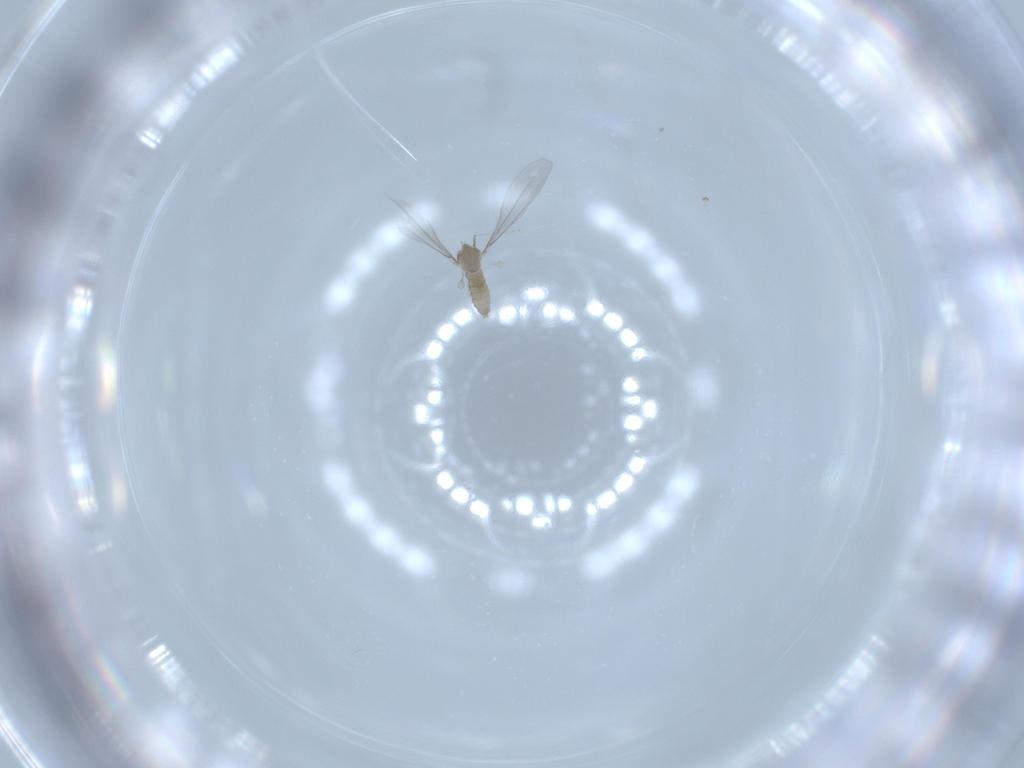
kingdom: Animalia
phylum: Arthropoda
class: Insecta
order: Diptera
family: Cecidomyiidae
